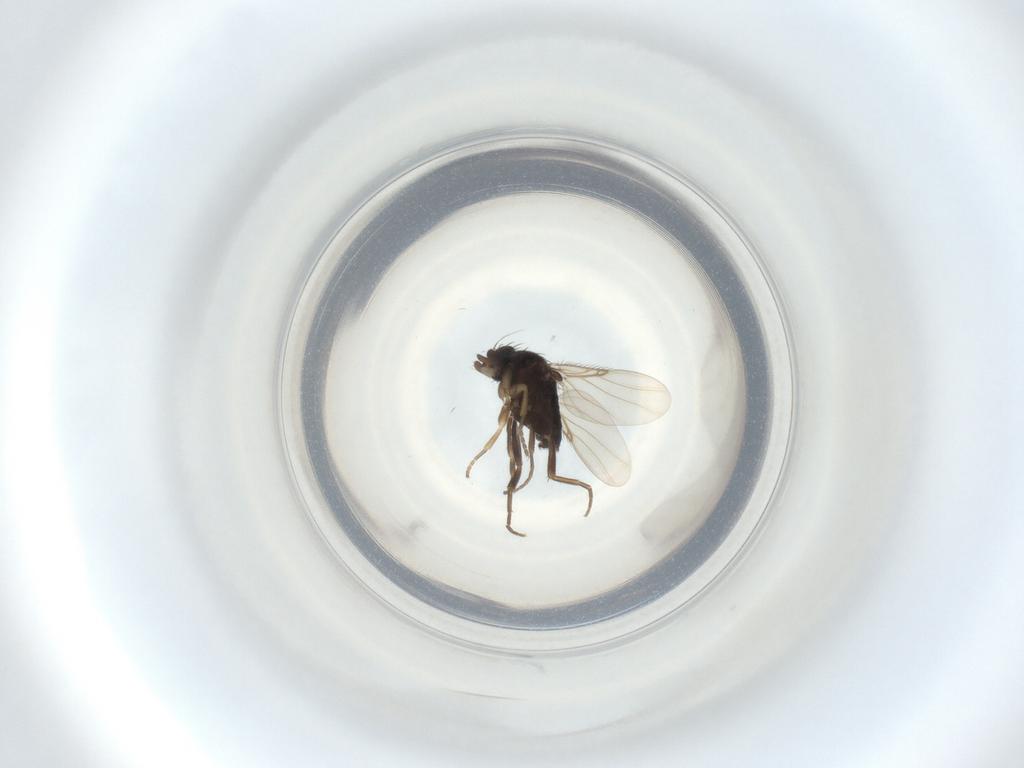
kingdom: Animalia
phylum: Arthropoda
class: Insecta
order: Diptera
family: Phoridae
